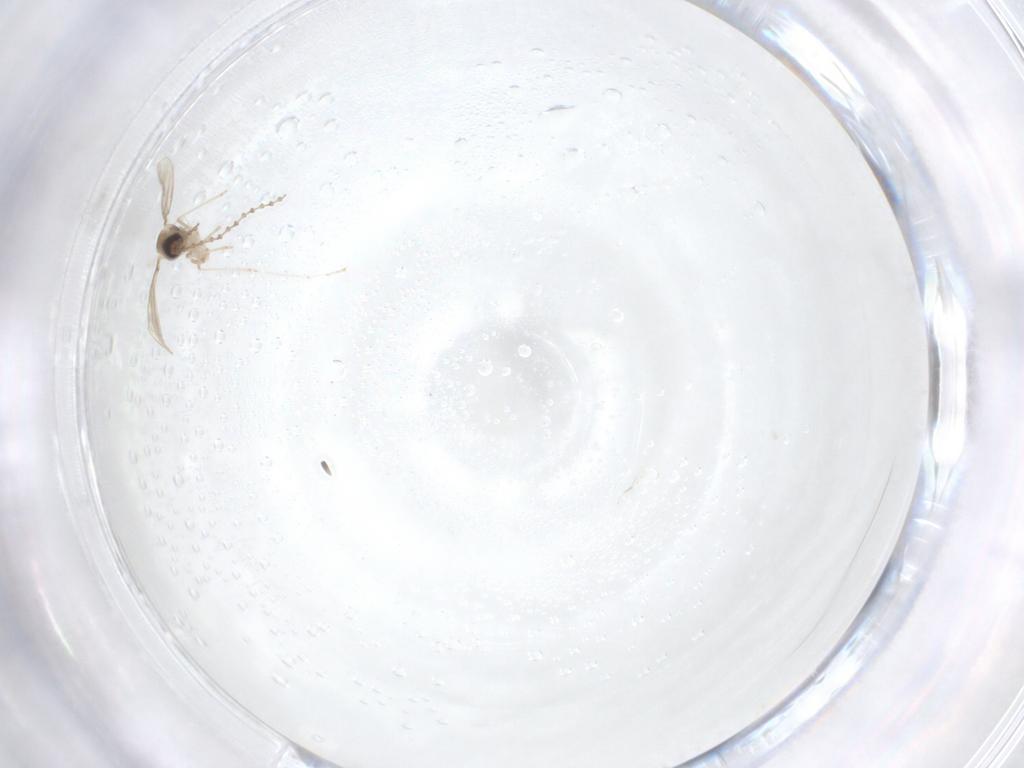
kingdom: Animalia
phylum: Arthropoda
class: Insecta
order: Diptera
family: Cecidomyiidae
